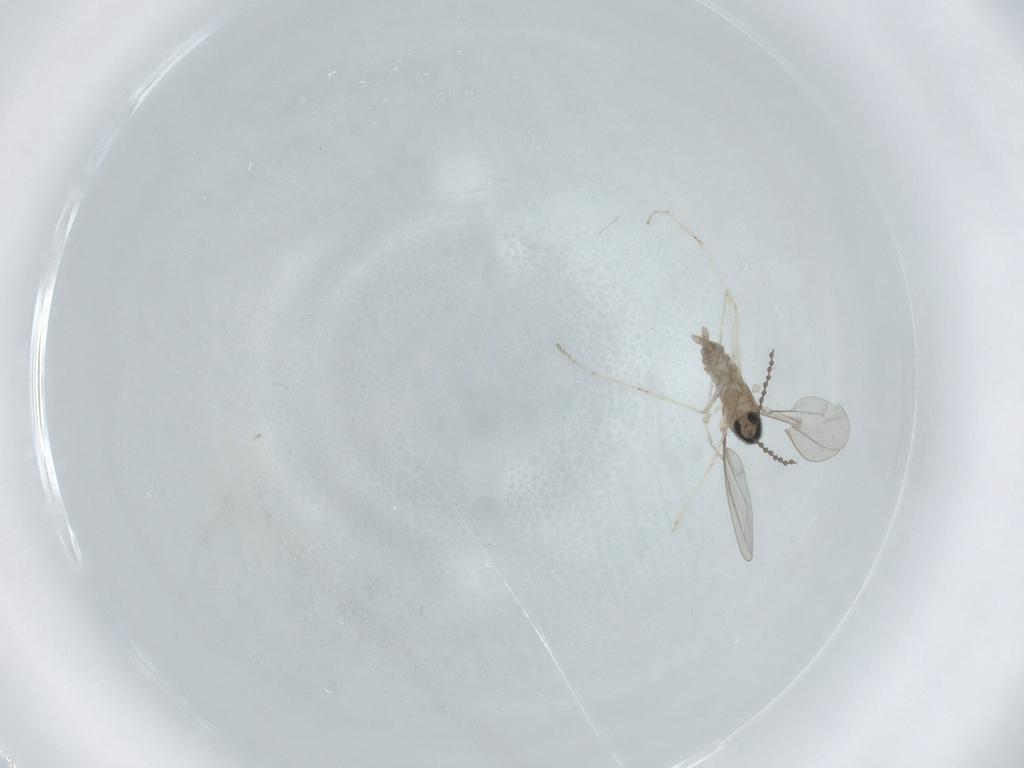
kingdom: Animalia
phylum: Arthropoda
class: Insecta
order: Diptera
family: Cecidomyiidae
